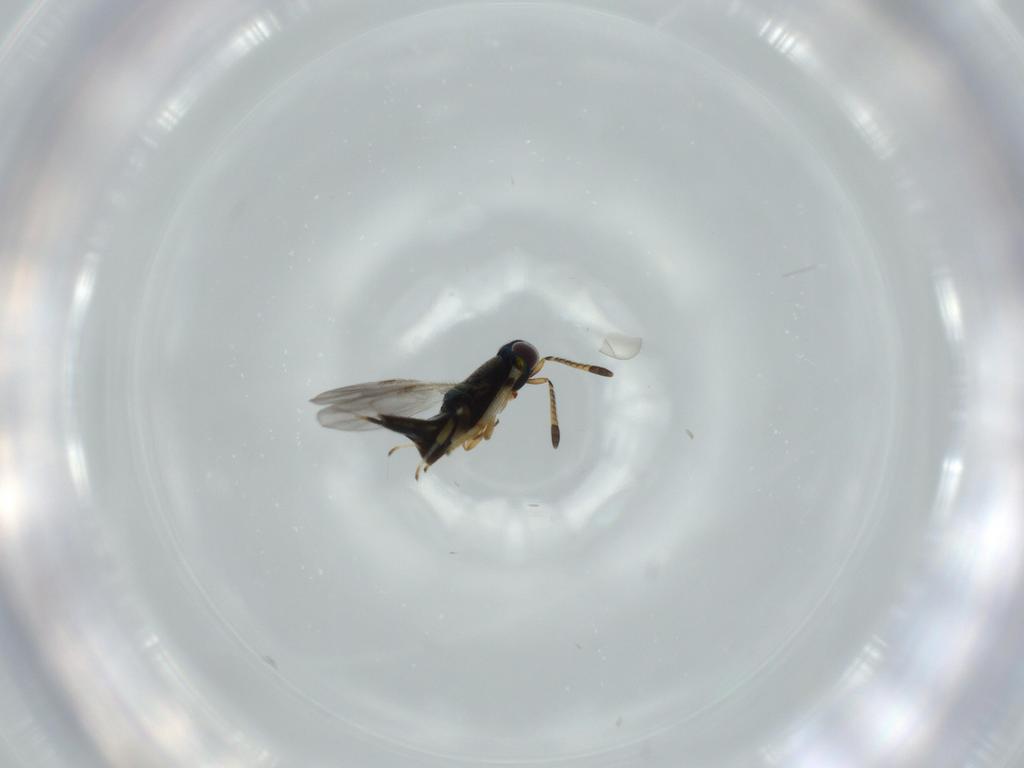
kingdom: Animalia
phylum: Arthropoda
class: Insecta
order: Hymenoptera
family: Encyrtidae
